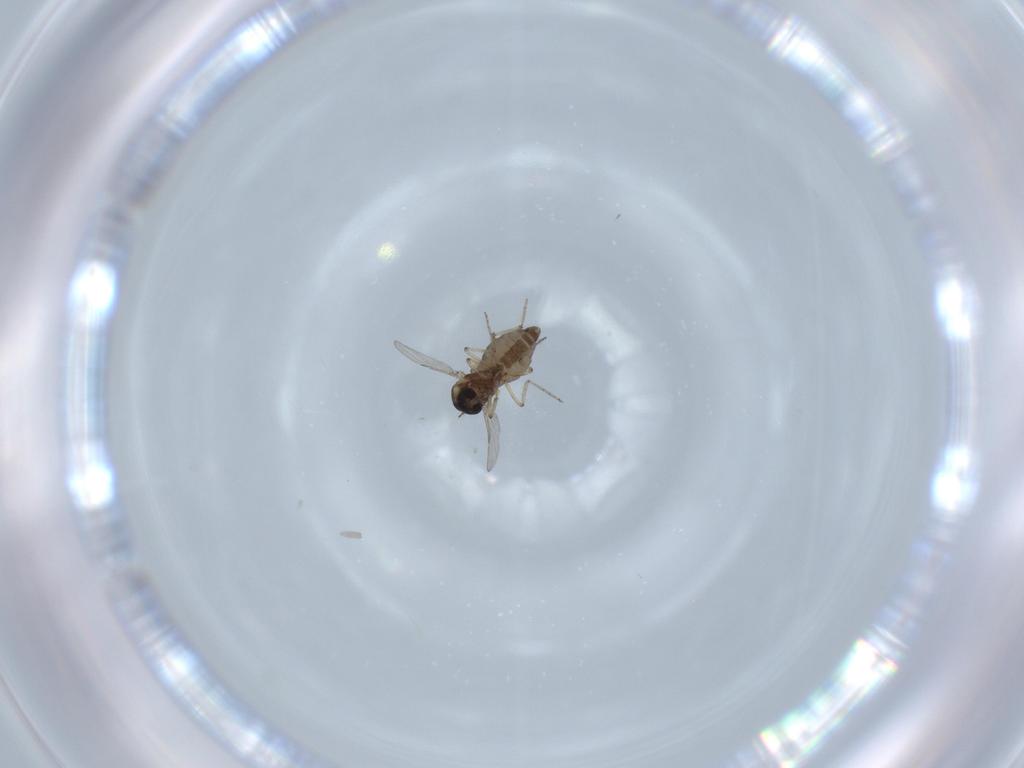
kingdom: Animalia
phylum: Arthropoda
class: Insecta
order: Diptera
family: Ceratopogonidae
